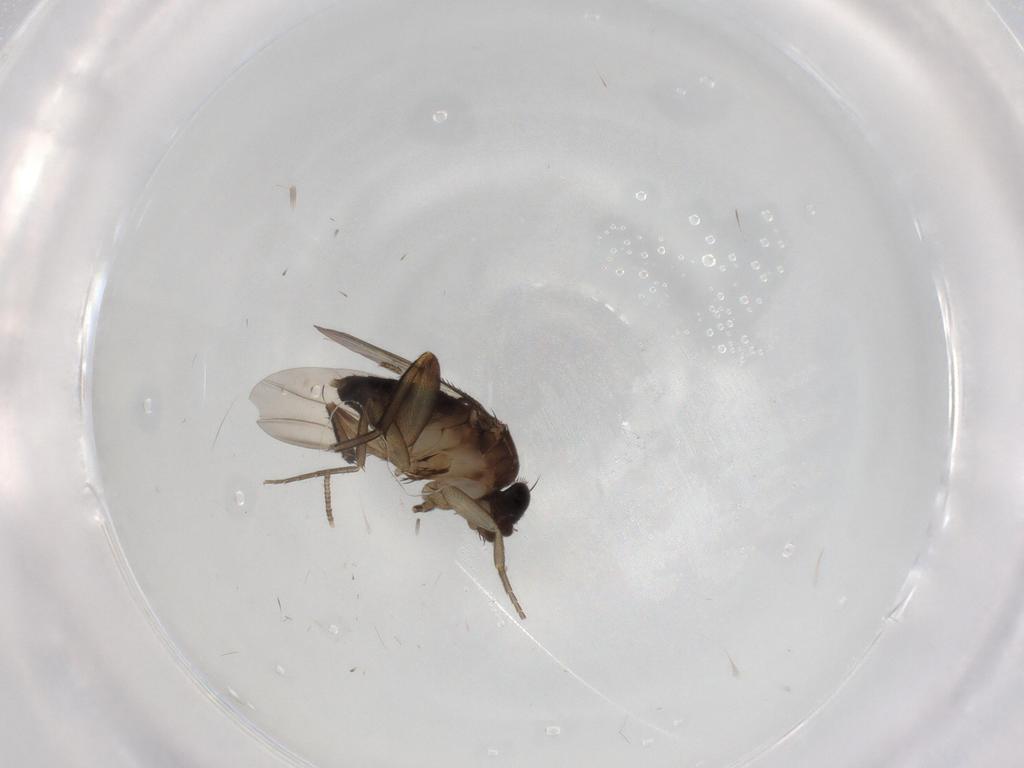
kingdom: Animalia
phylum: Arthropoda
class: Insecta
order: Diptera
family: Phoridae
